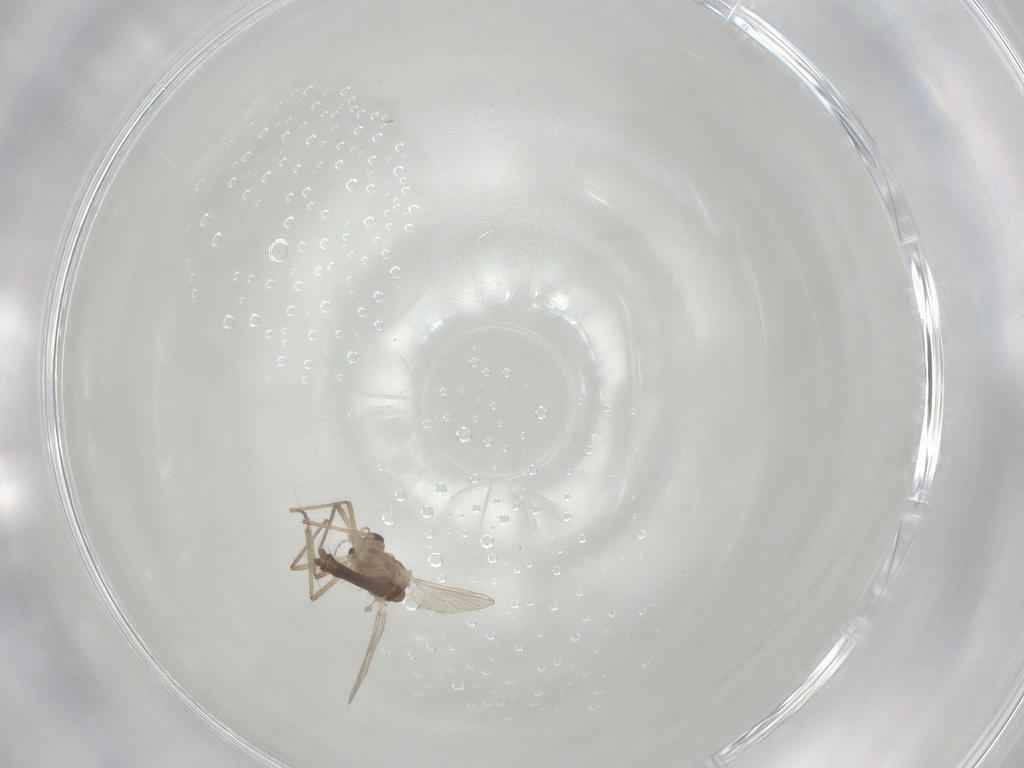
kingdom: Animalia
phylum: Arthropoda
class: Insecta
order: Diptera
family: Chironomidae
